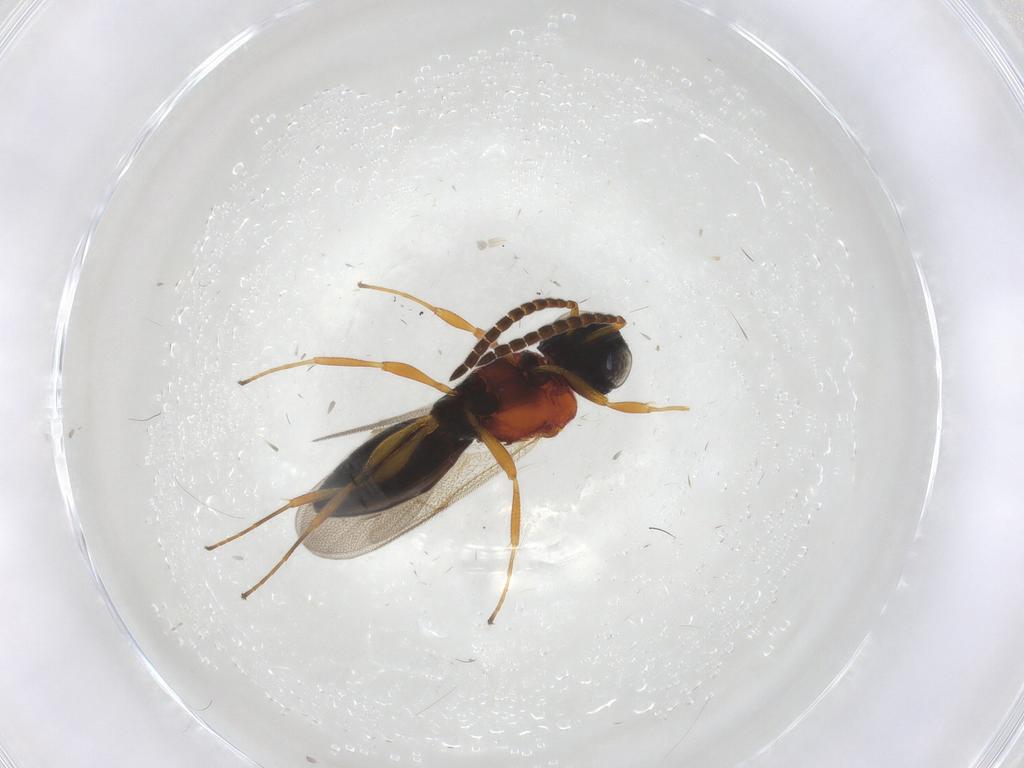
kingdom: Animalia
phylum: Arthropoda
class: Insecta
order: Hymenoptera
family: Scelionidae
